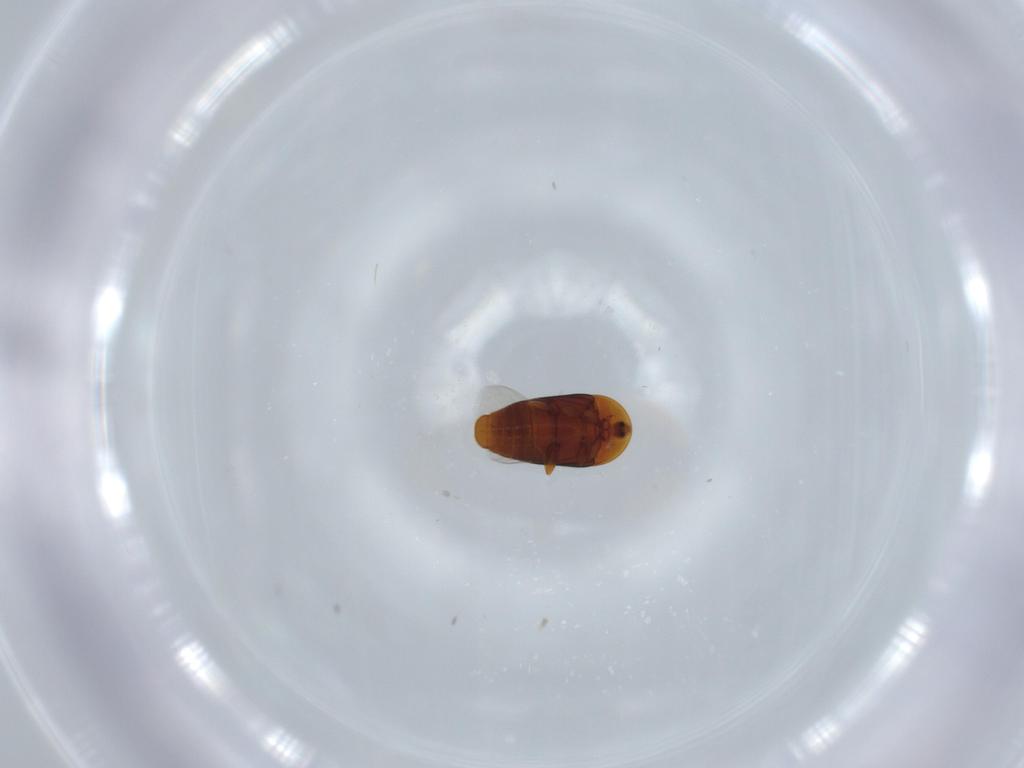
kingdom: Animalia
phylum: Arthropoda
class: Insecta
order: Coleoptera
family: Corylophidae
